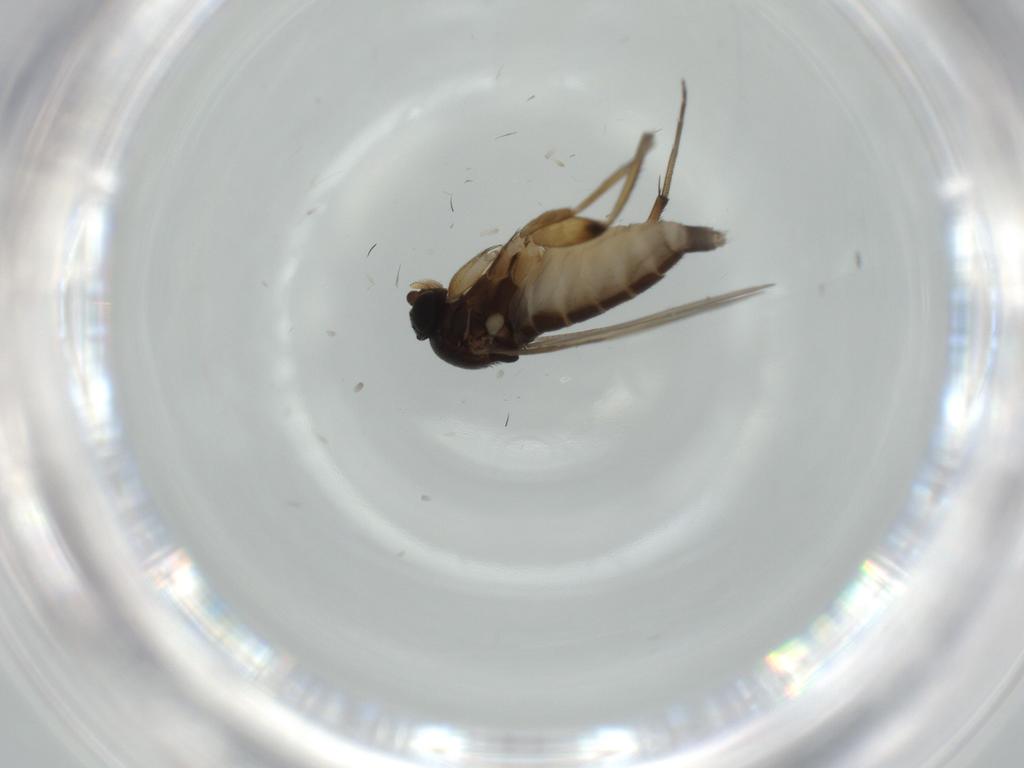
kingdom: Animalia
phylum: Arthropoda
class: Insecta
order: Diptera
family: Phoridae
